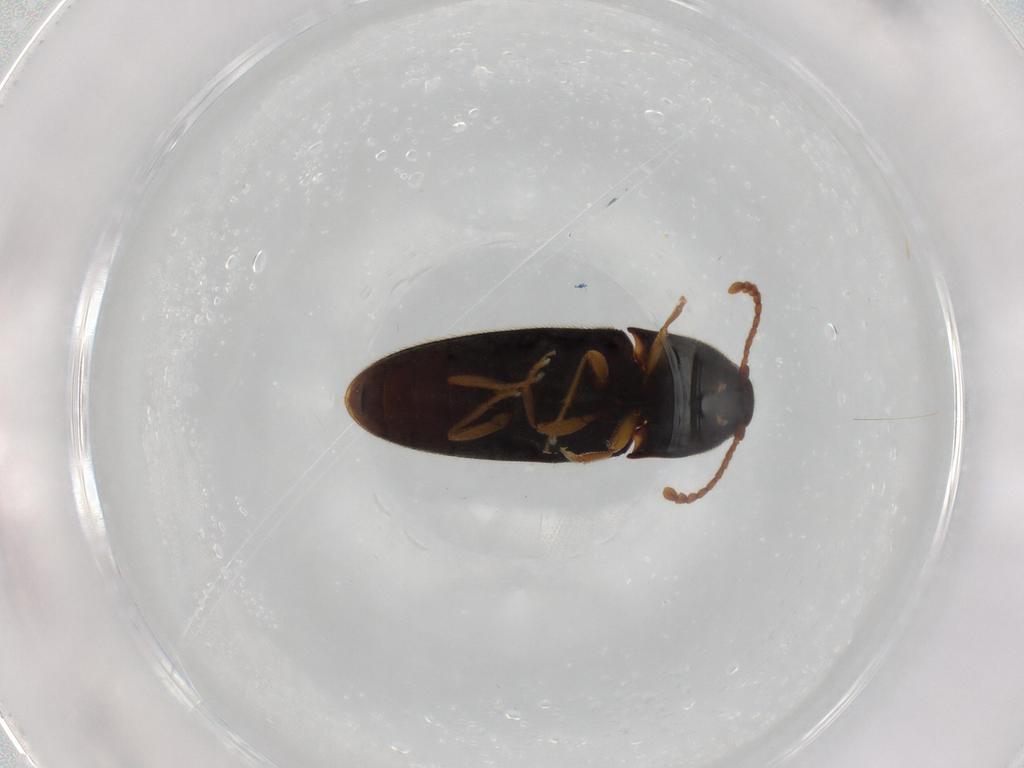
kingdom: Animalia
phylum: Arthropoda
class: Insecta
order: Coleoptera
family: Elateridae
